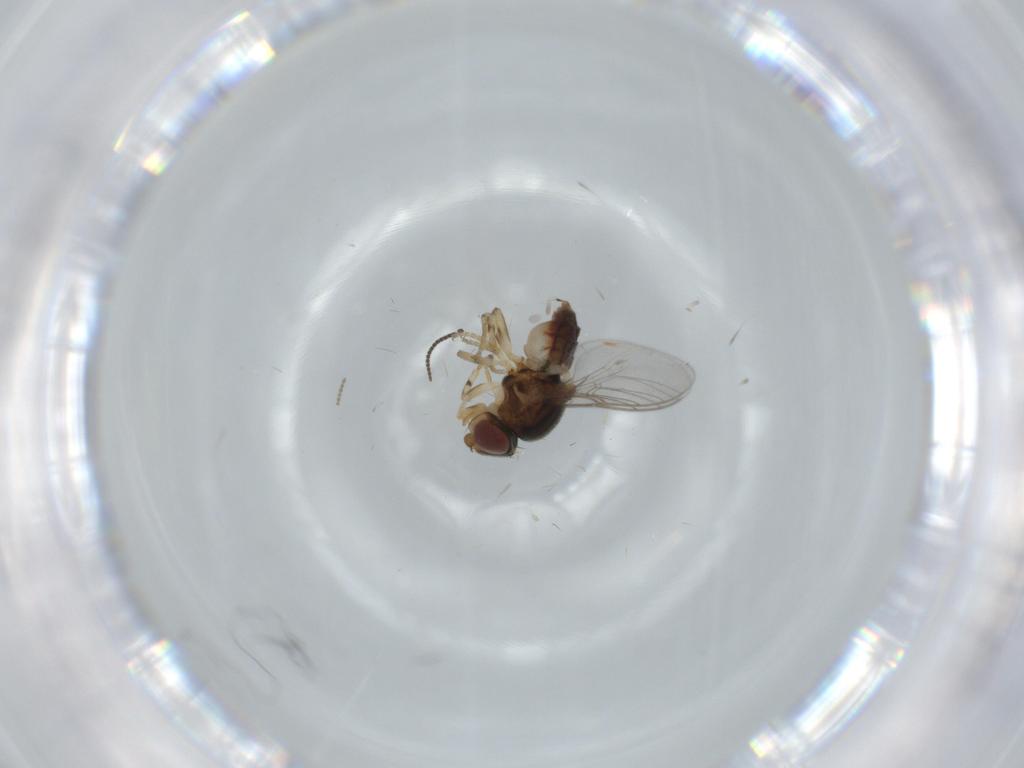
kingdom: Animalia
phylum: Arthropoda
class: Insecta
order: Diptera
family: Chloropidae
